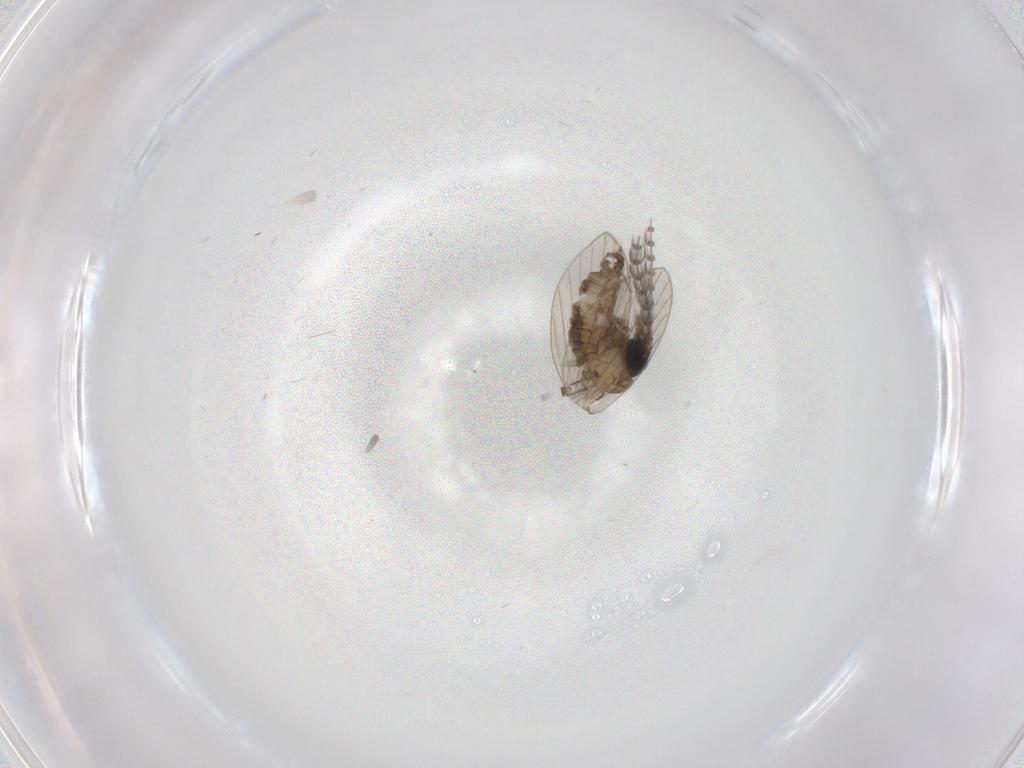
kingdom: Animalia
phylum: Arthropoda
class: Insecta
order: Diptera
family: Psychodidae
